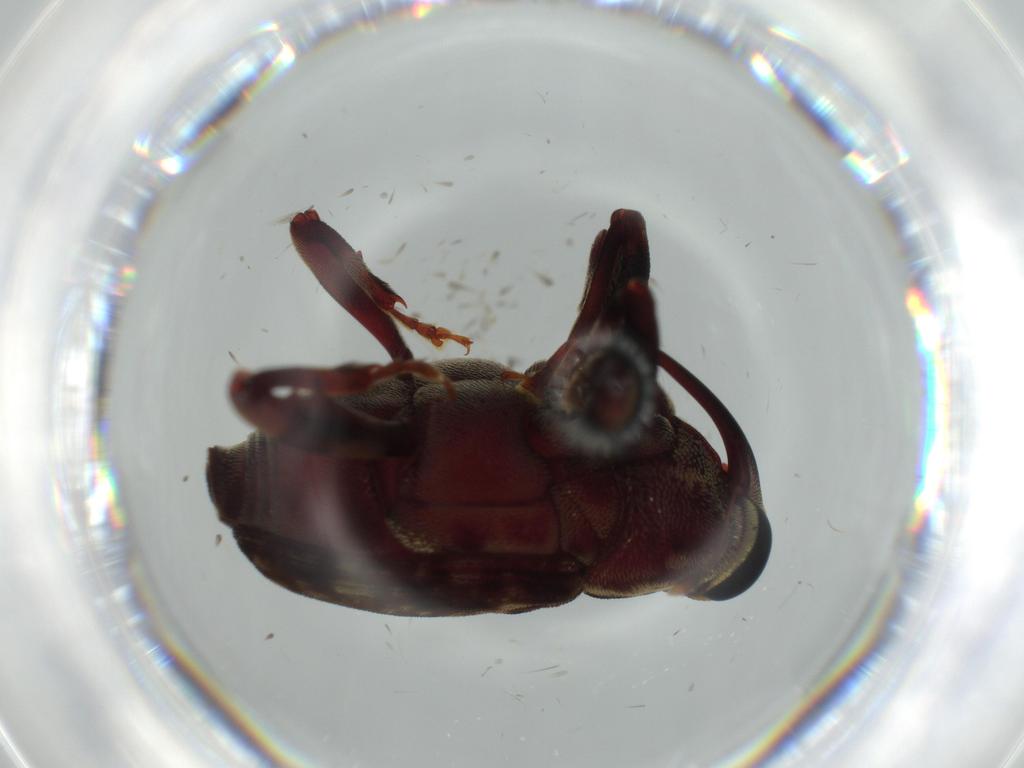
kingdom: Animalia
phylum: Arthropoda
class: Insecta
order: Coleoptera
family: Curculionidae
